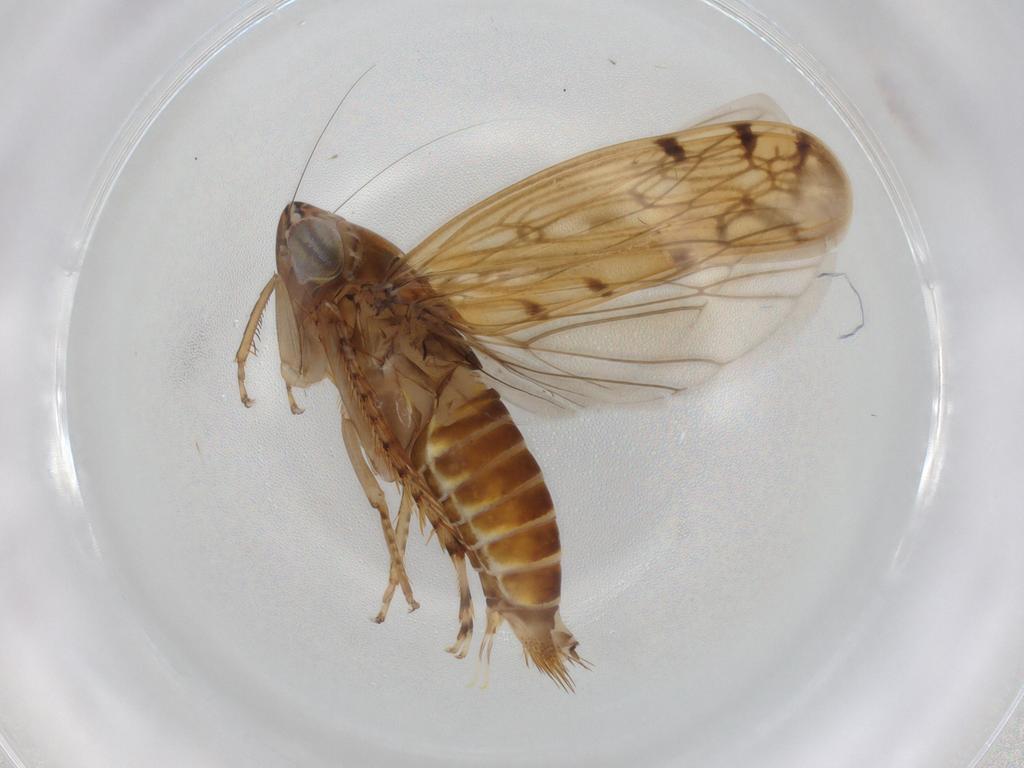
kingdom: Animalia
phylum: Arthropoda
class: Insecta
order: Hemiptera
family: Cicadellidae
